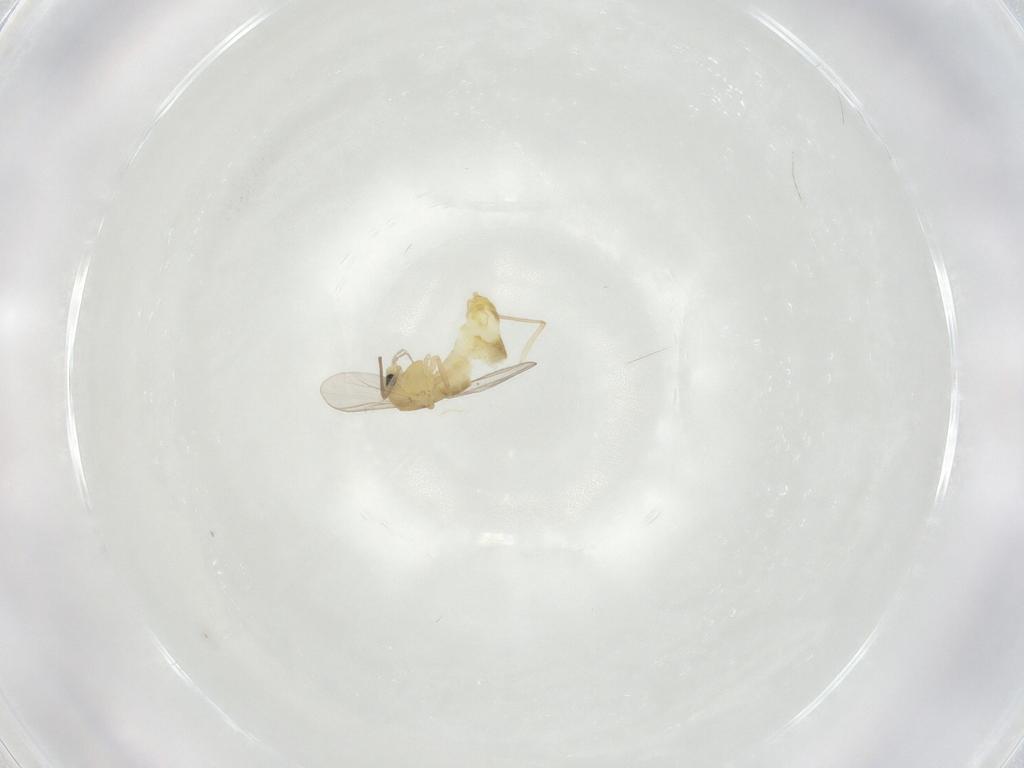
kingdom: Animalia
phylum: Arthropoda
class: Insecta
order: Diptera
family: Chironomidae
